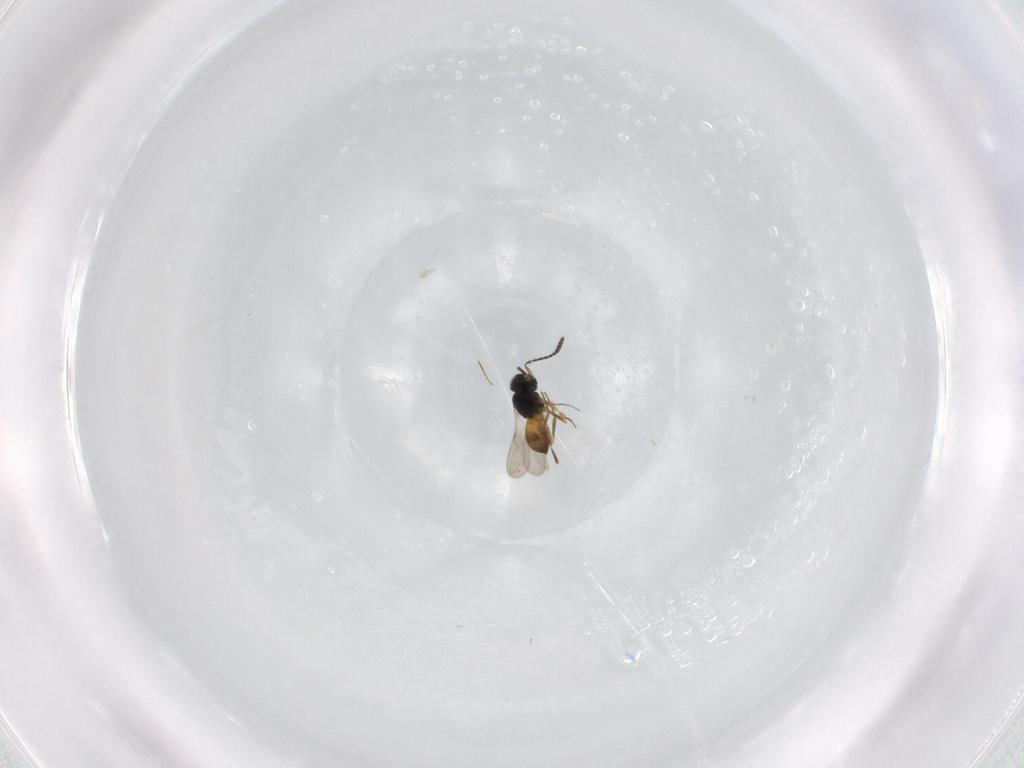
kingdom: Animalia
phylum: Arthropoda
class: Insecta
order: Hymenoptera
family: Scelionidae
